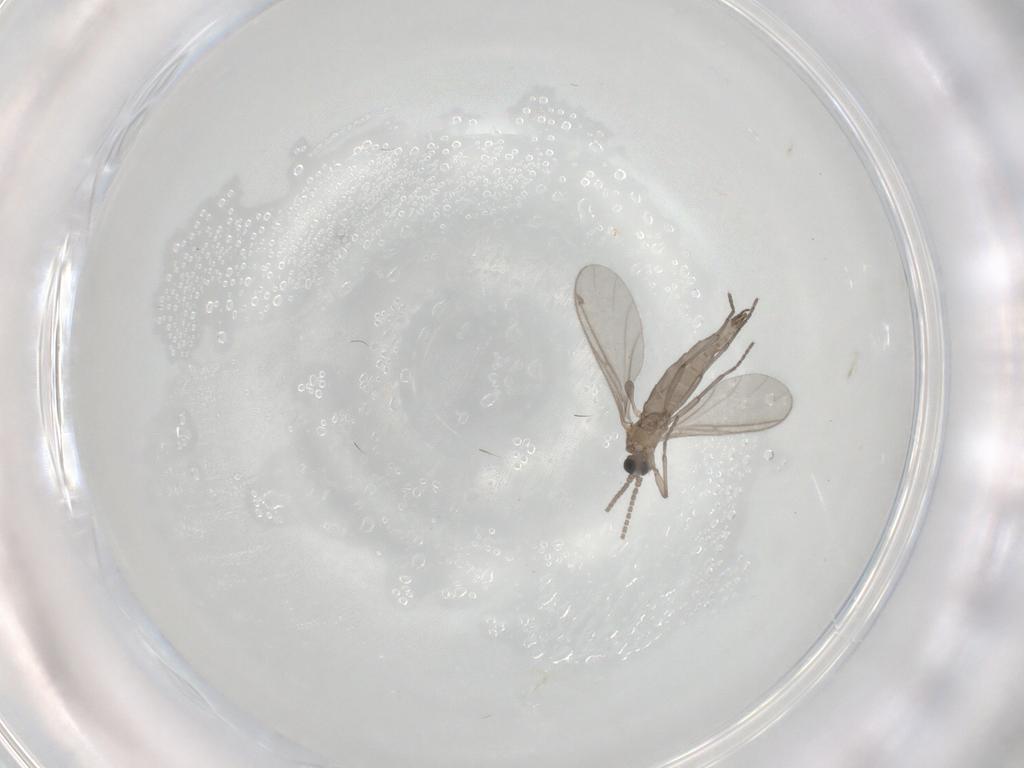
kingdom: Animalia
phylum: Arthropoda
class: Insecta
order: Diptera
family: Sciaridae
